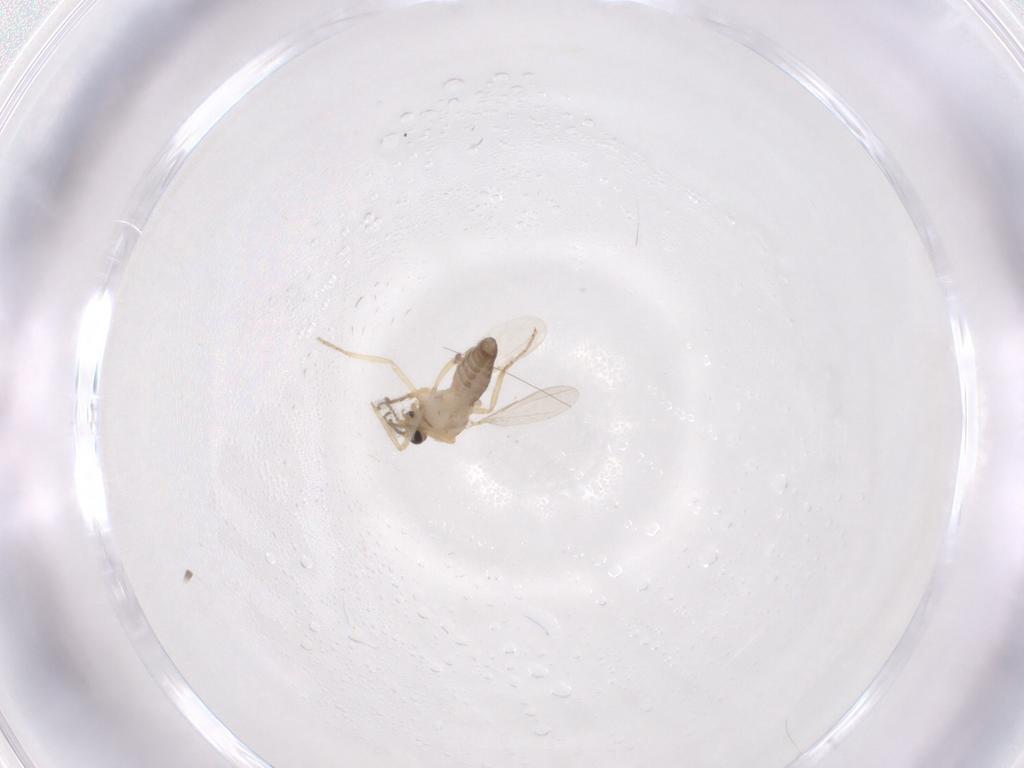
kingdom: Animalia
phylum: Arthropoda
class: Insecta
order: Diptera
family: Ceratopogonidae
